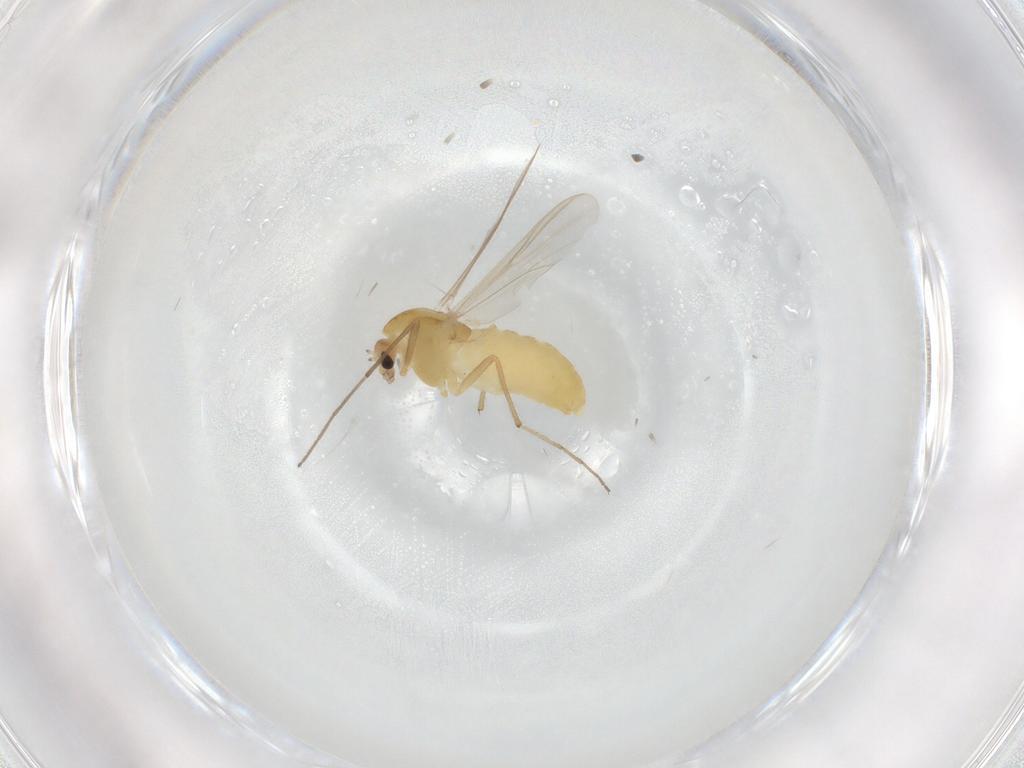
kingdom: Animalia
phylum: Arthropoda
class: Insecta
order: Diptera
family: Chironomidae
